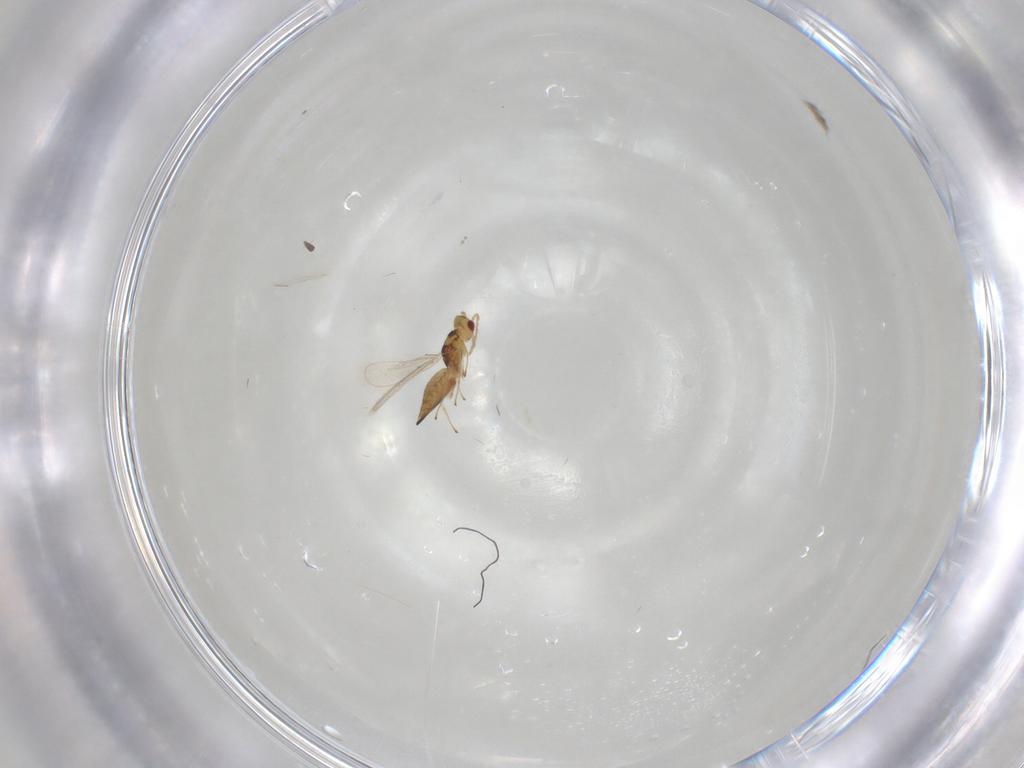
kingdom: Animalia
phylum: Arthropoda
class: Insecta
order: Hymenoptera
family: Eulophidae
